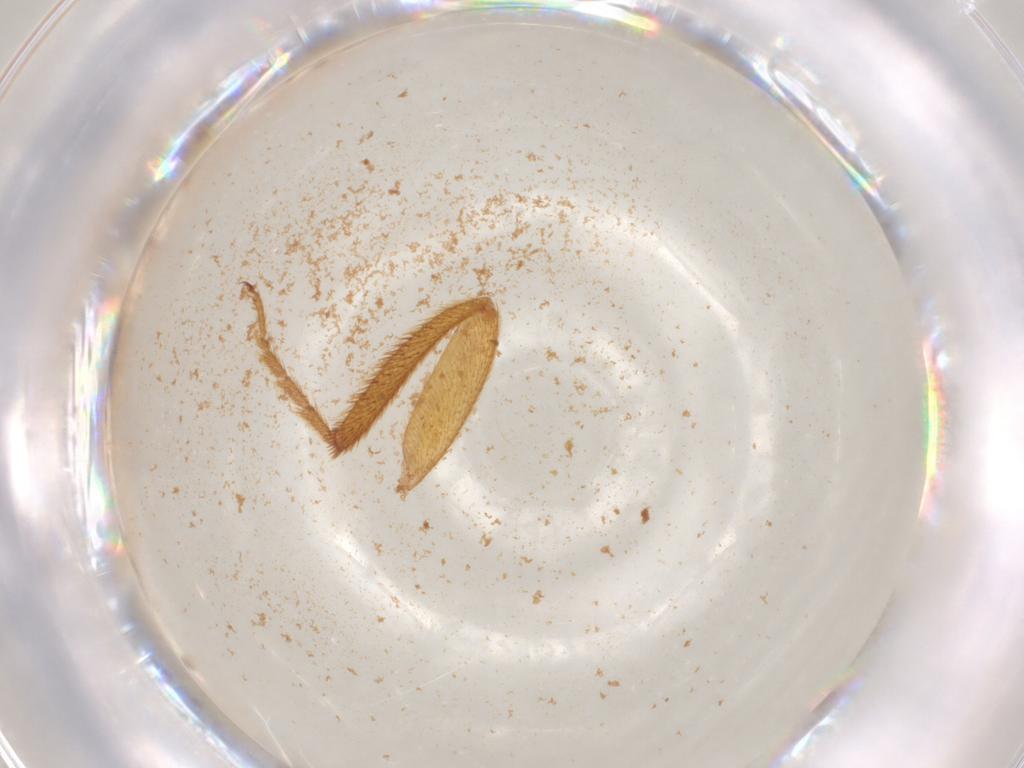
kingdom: Animalia
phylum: Arthropoda
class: Insecta
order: Coleoptera
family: Phengodidae
